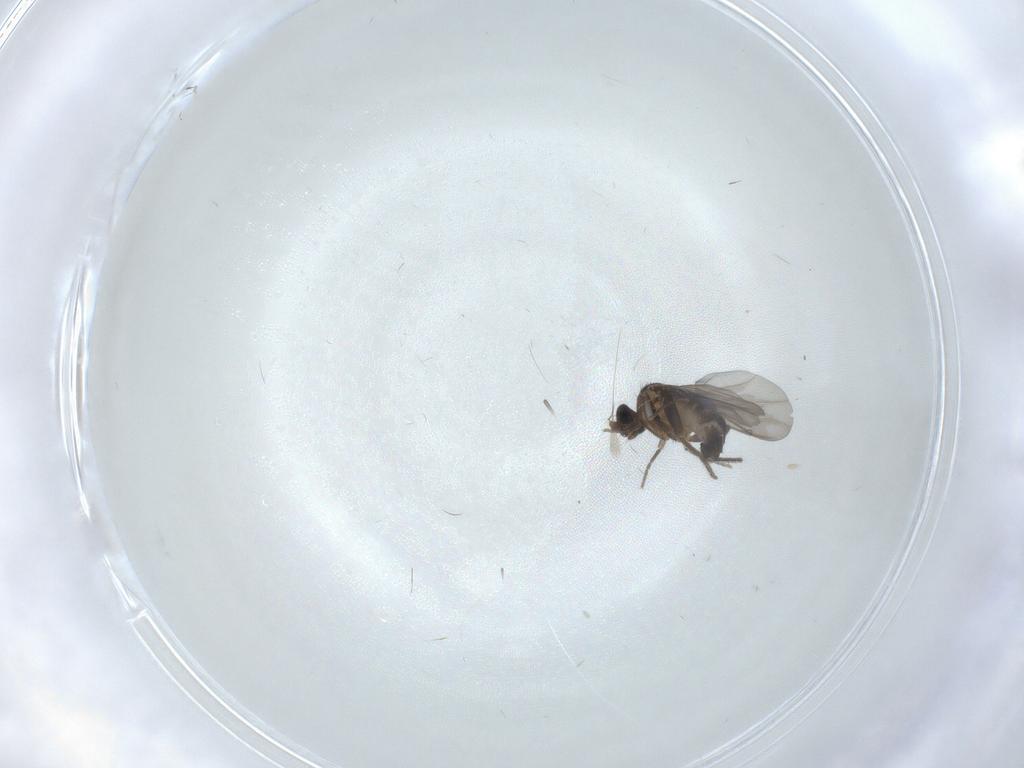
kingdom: Animalia
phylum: Arthropoda
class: Insecta
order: Diptera
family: Phoridae
